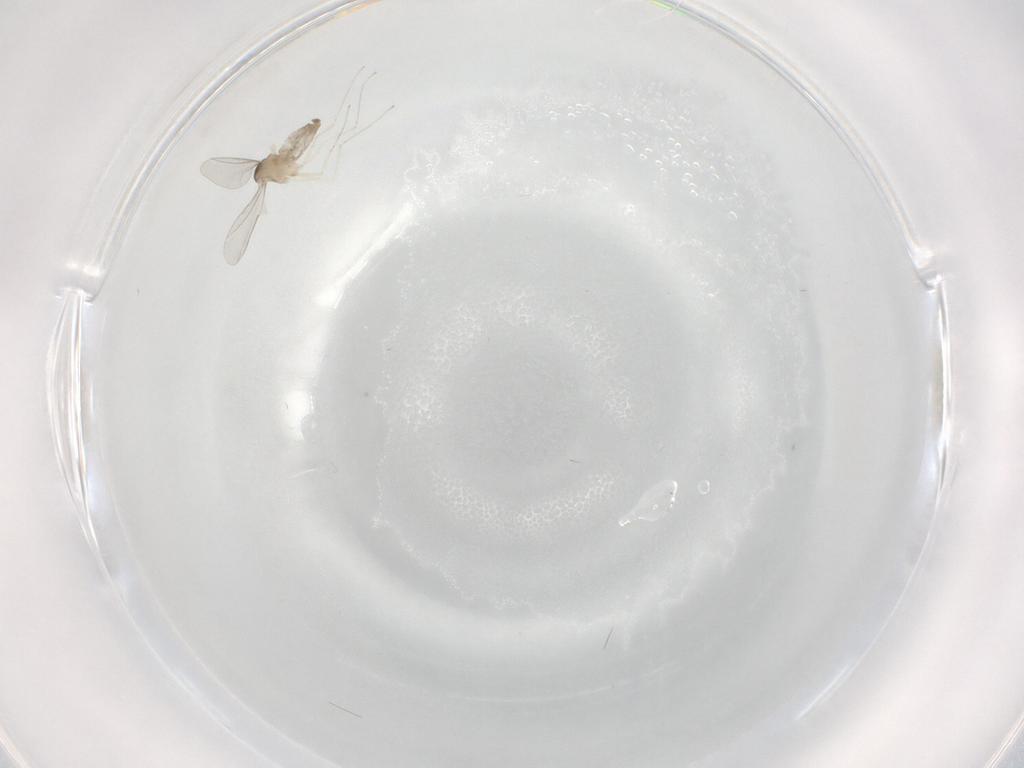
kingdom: Animalia
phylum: Arthropoda
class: Insecta
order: Diptera
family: Cecidomyiidae
